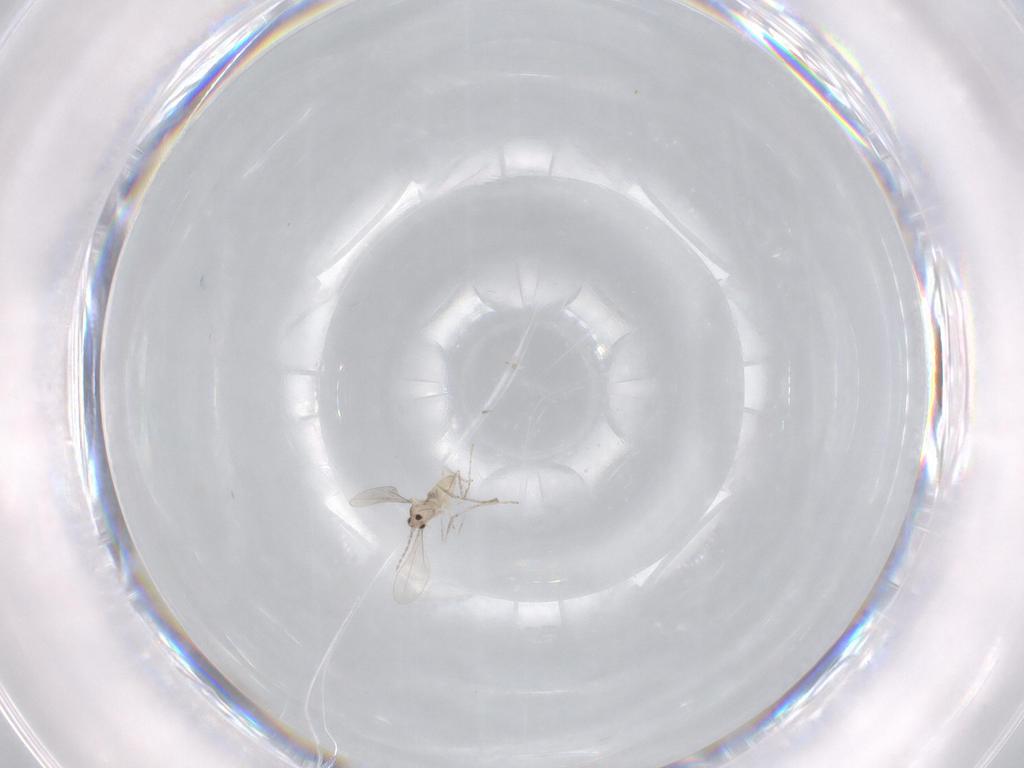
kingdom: Animalia
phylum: Arthropoda
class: Insecta
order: Diptera
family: Cecidomyiidae
